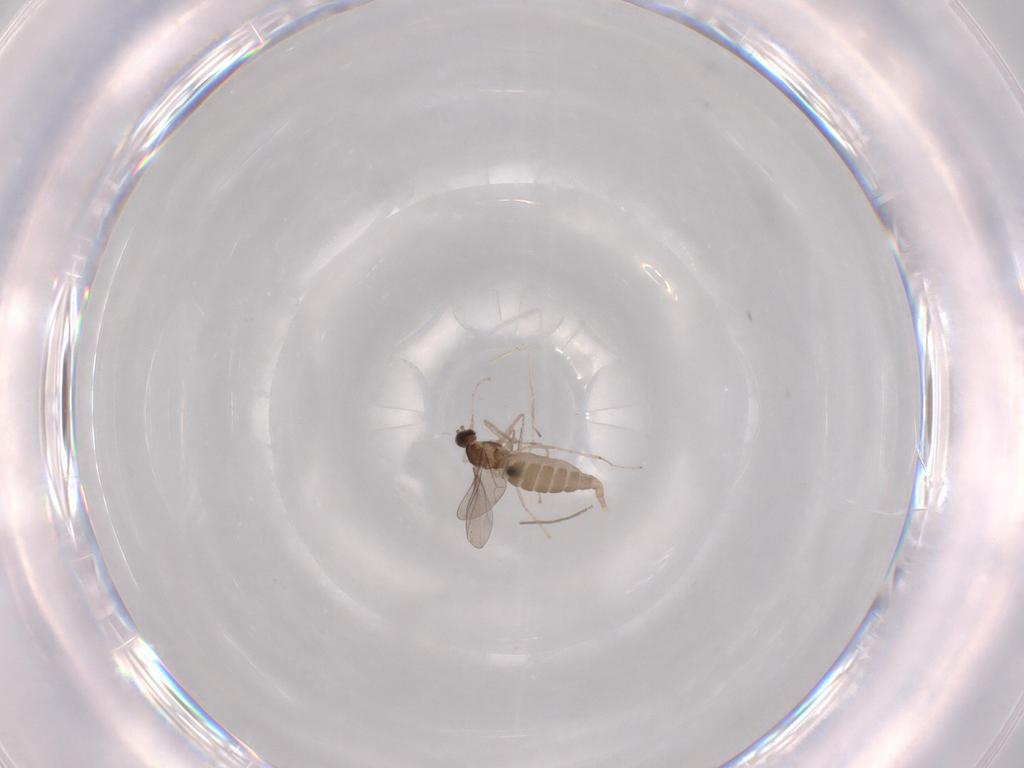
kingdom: Animalia
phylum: Arthropoda
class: Insecta
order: Diptera
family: Chironomidae
